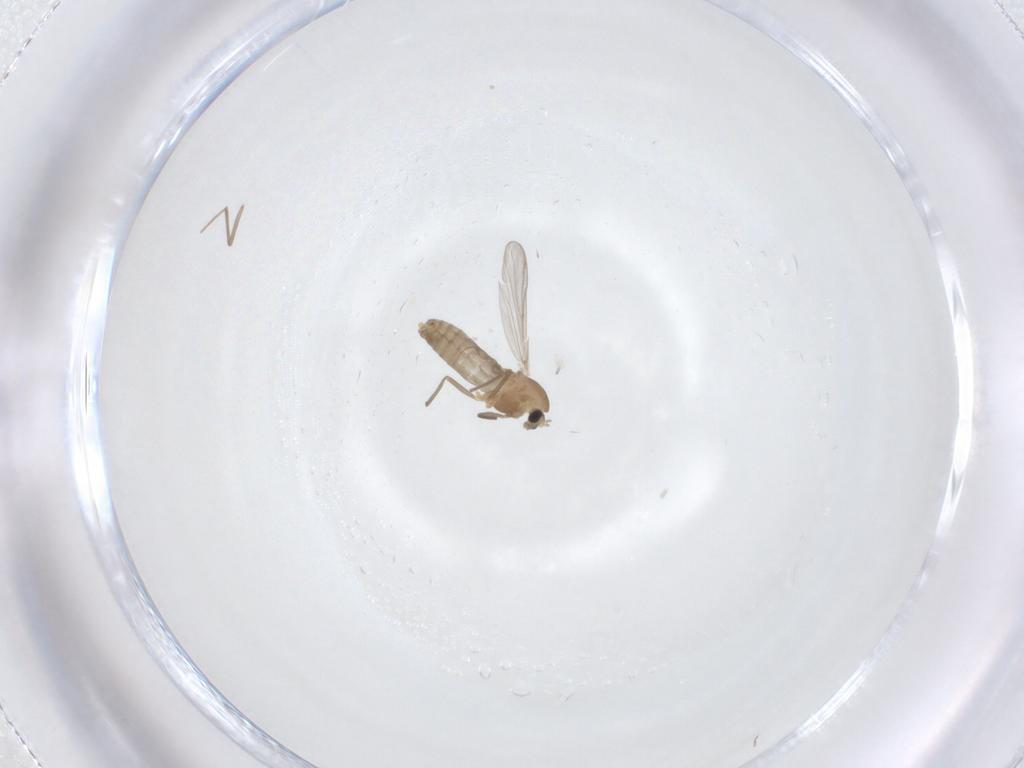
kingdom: Animalia
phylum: Arthropoda
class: Insecta
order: Diptera
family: Chironomidae
